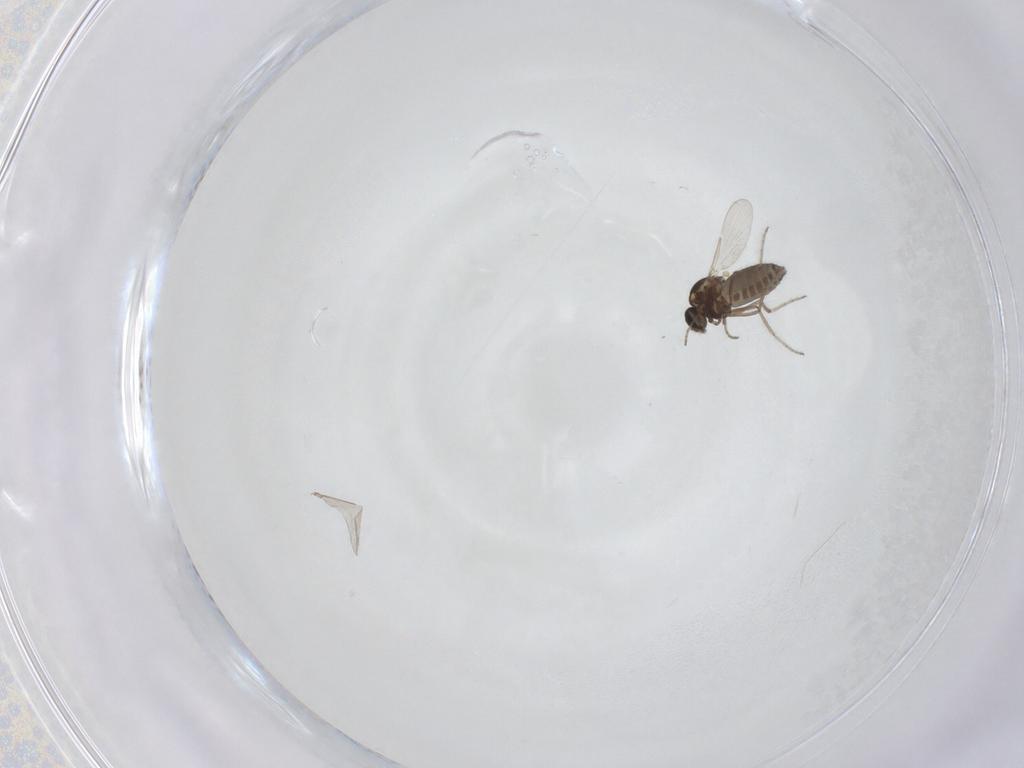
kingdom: Animalia
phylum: Arthropoda
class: Insecta
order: Diptera
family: Ceratopogonidae
